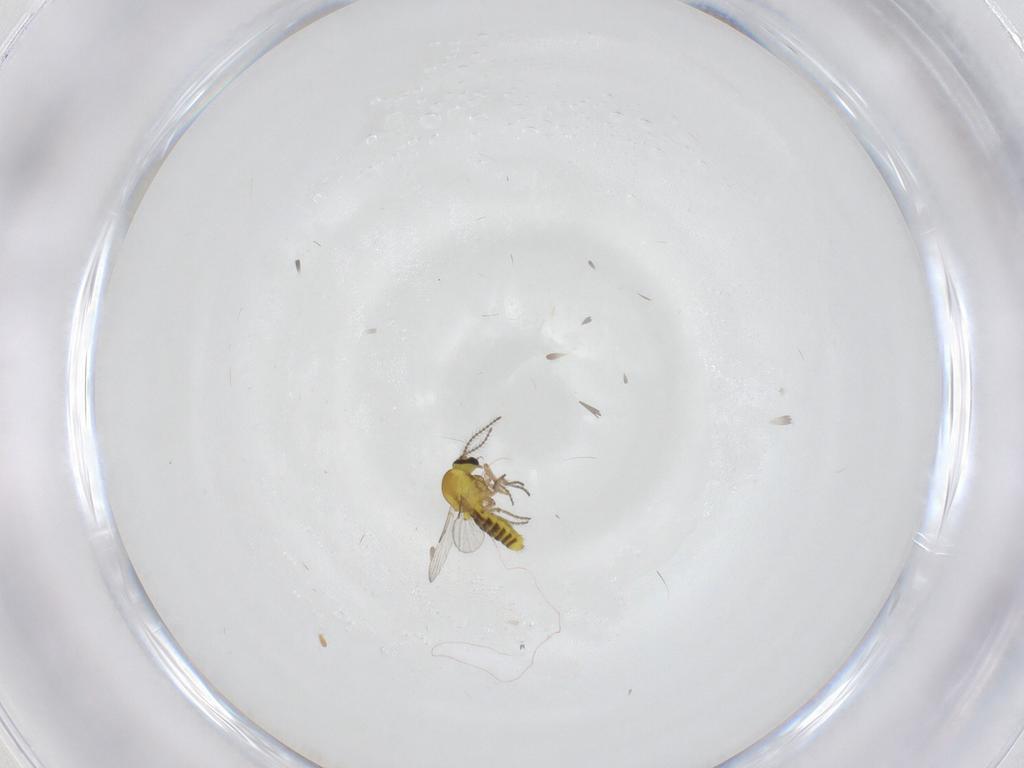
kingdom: Animalia
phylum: Arthropoda
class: Insecta
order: Diptera
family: Ceratopogonidae
